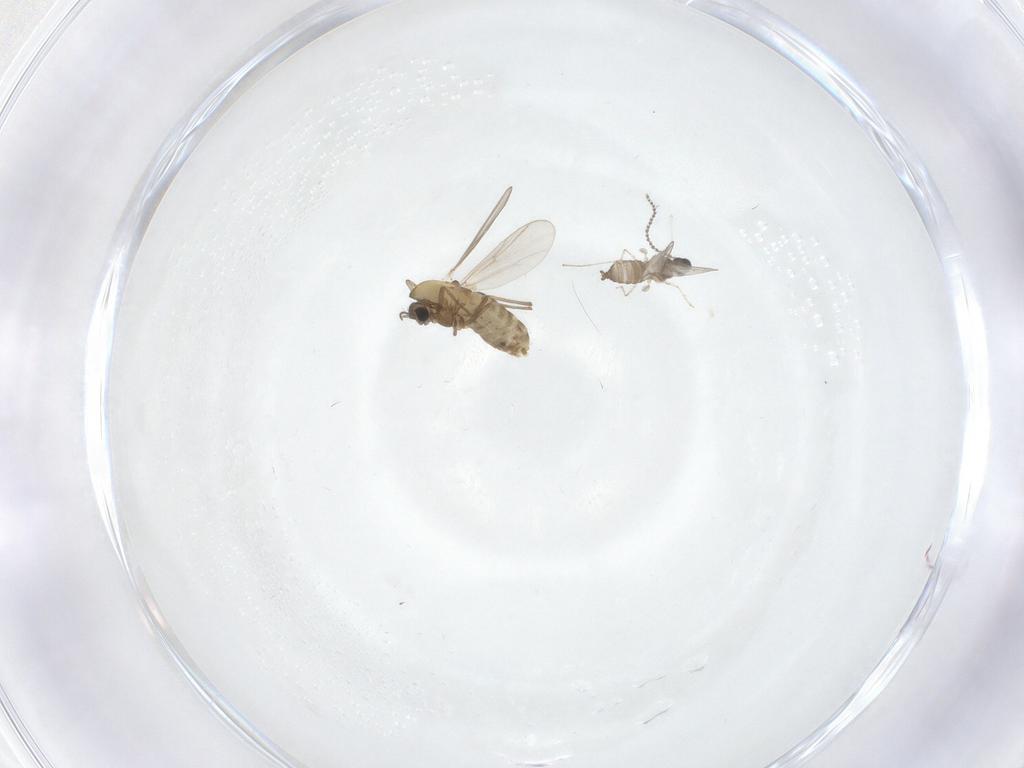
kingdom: Animalia
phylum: Arthropoda
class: Insecta
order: Diptera
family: Chironomidae
